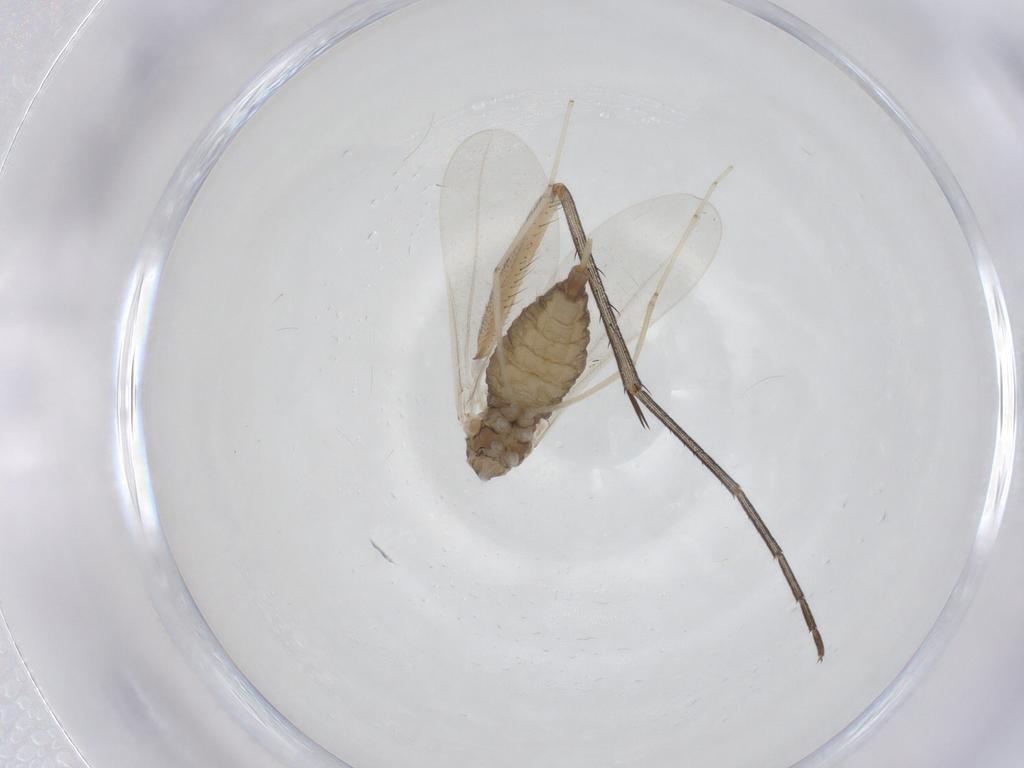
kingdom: Animalia
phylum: Arthropoda
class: Insecta
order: Diptera
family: Cecidomyiidae
